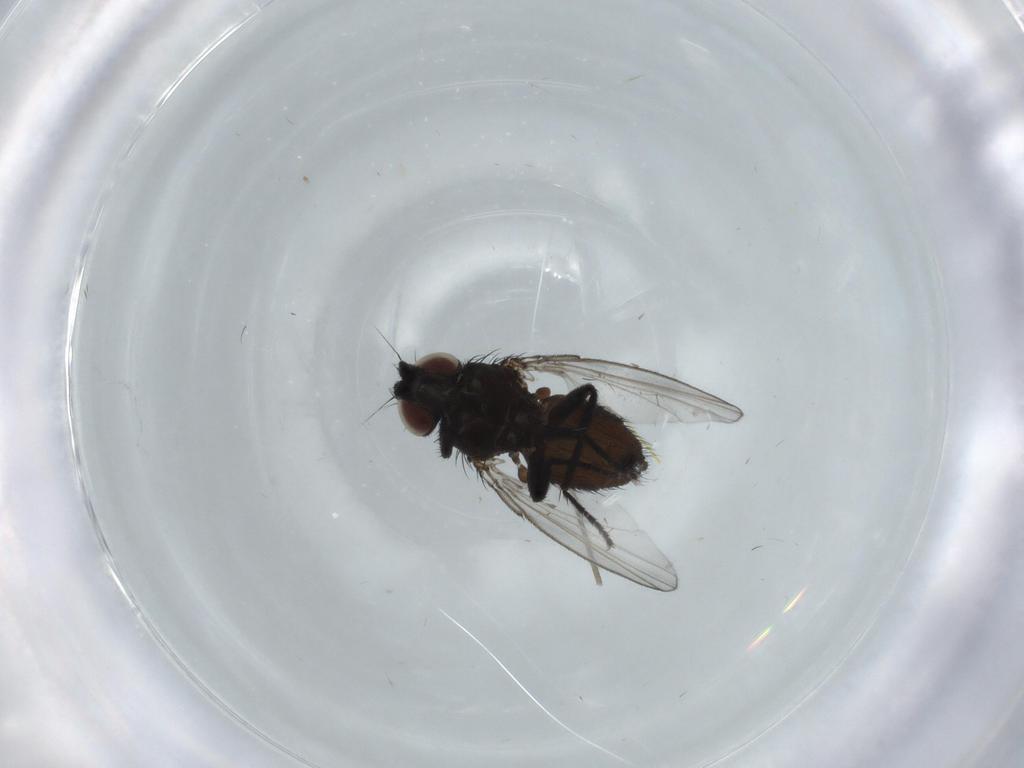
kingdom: Animalia
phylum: Arthropoda
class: Insecta
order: Diptera
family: Milichiidae
